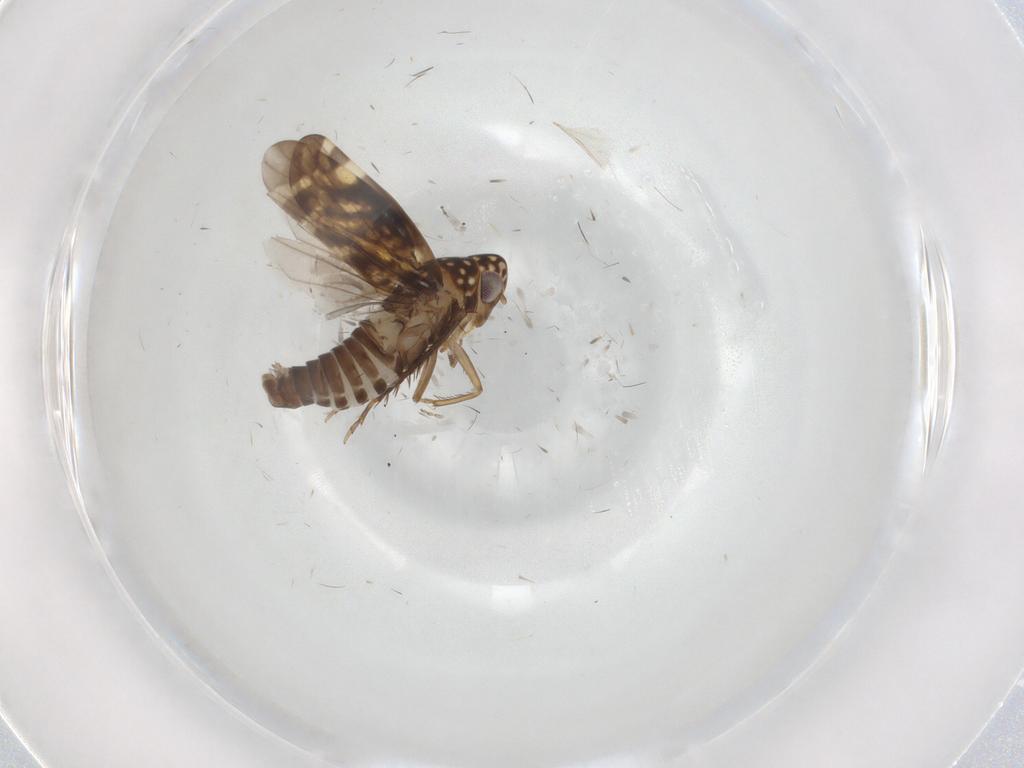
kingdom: Animalia
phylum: Arthropoda
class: Insecta
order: Hemiptera
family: Cicadellidae
